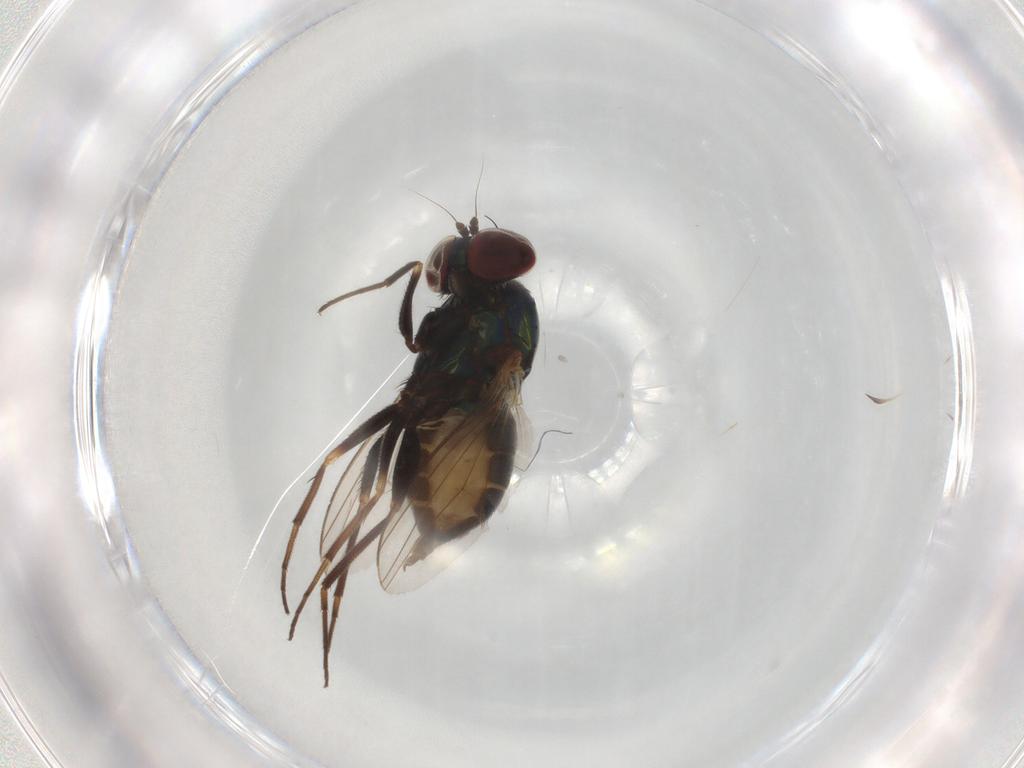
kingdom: Animalia
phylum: Arthropoda
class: Insecta
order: Diptera
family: Dolichopodidae
